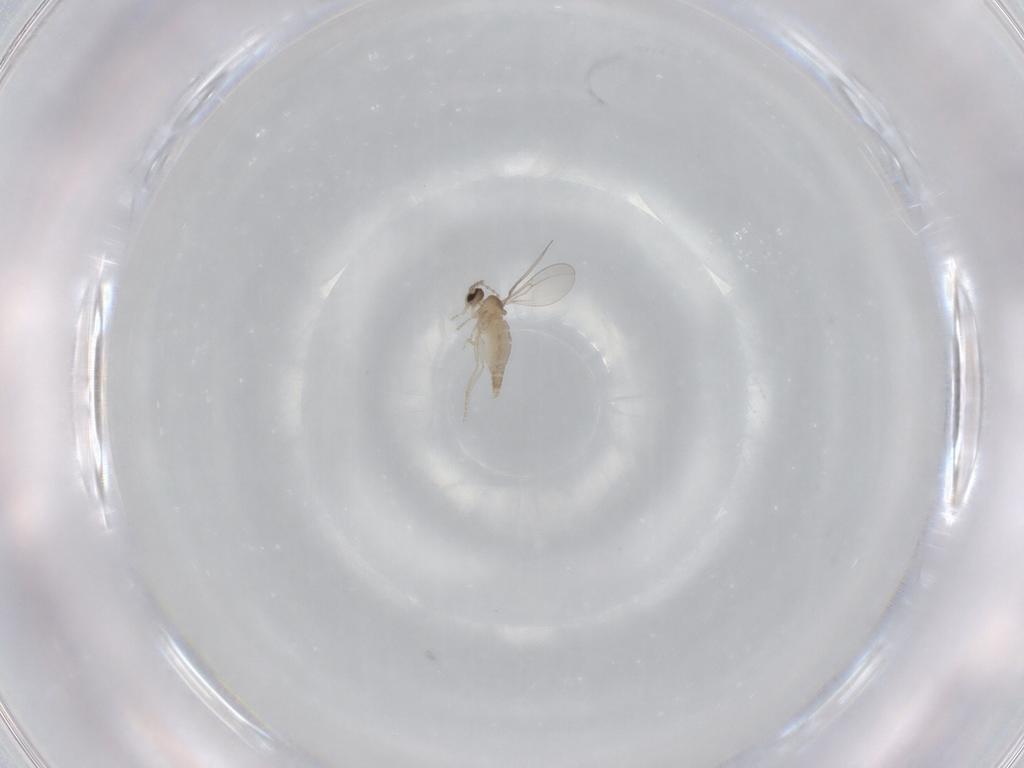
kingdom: Animalia
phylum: Arthropoda
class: Insecta
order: Diptera
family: Cecidomyiidae
